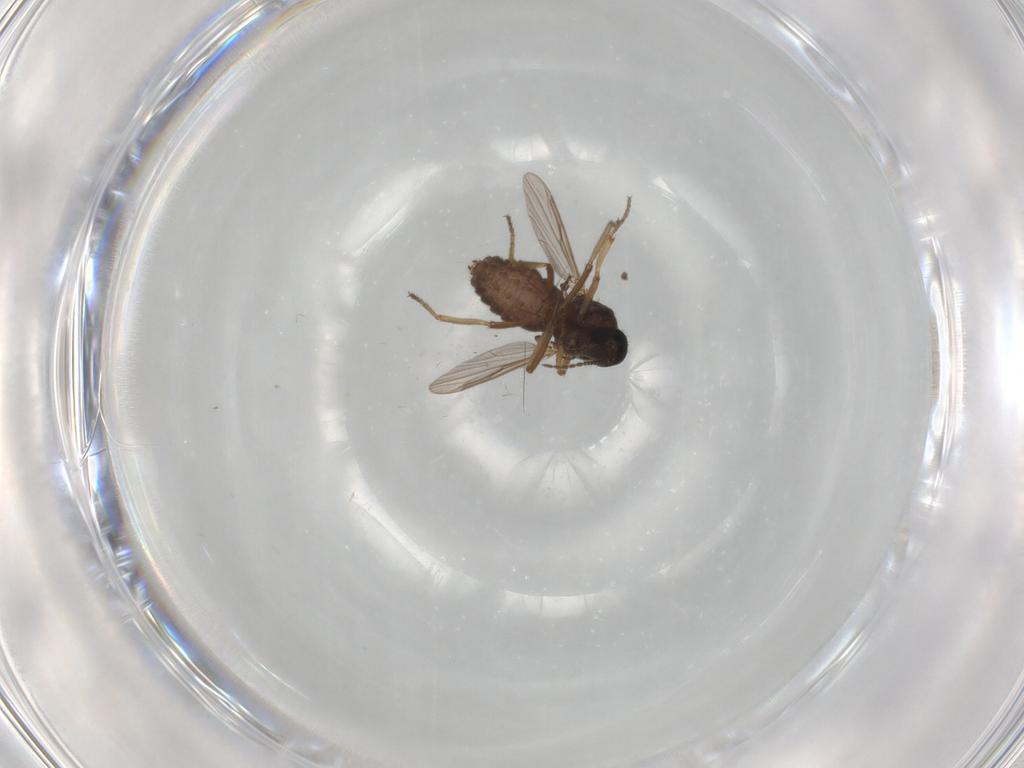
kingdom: Animalia
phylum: Arthropoda
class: Insecta
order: Diptera
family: Ceratopogonidae
